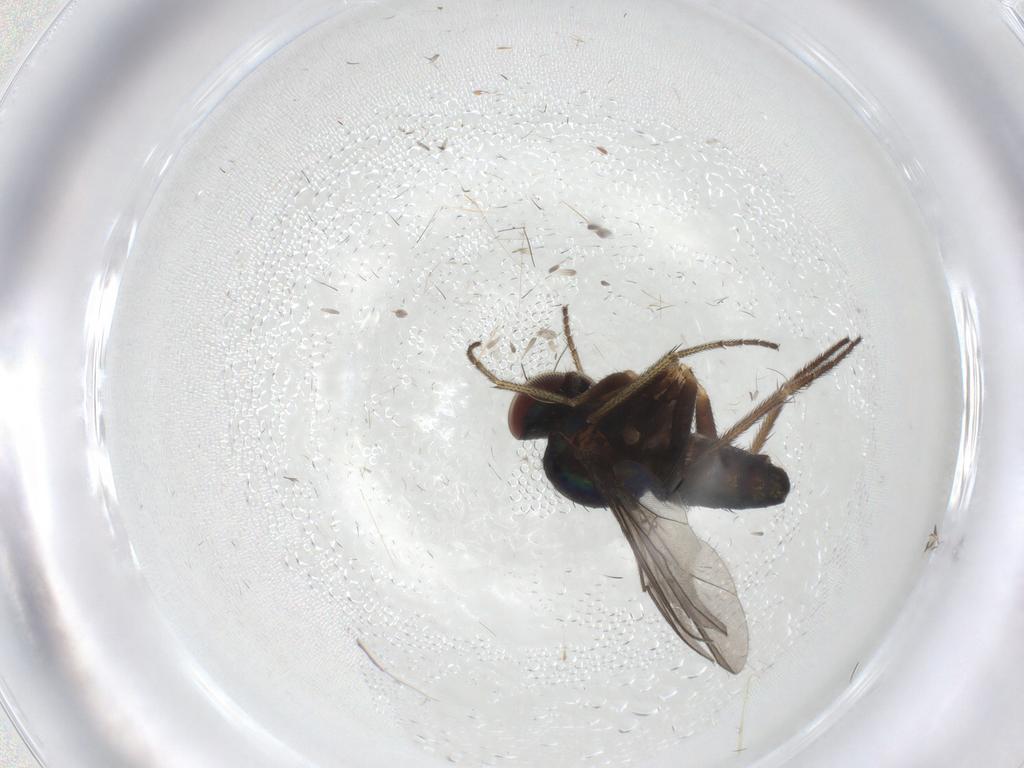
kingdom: Animalia
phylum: Arthropoda
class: Insecta
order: Diptera
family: Dolichopodidae
